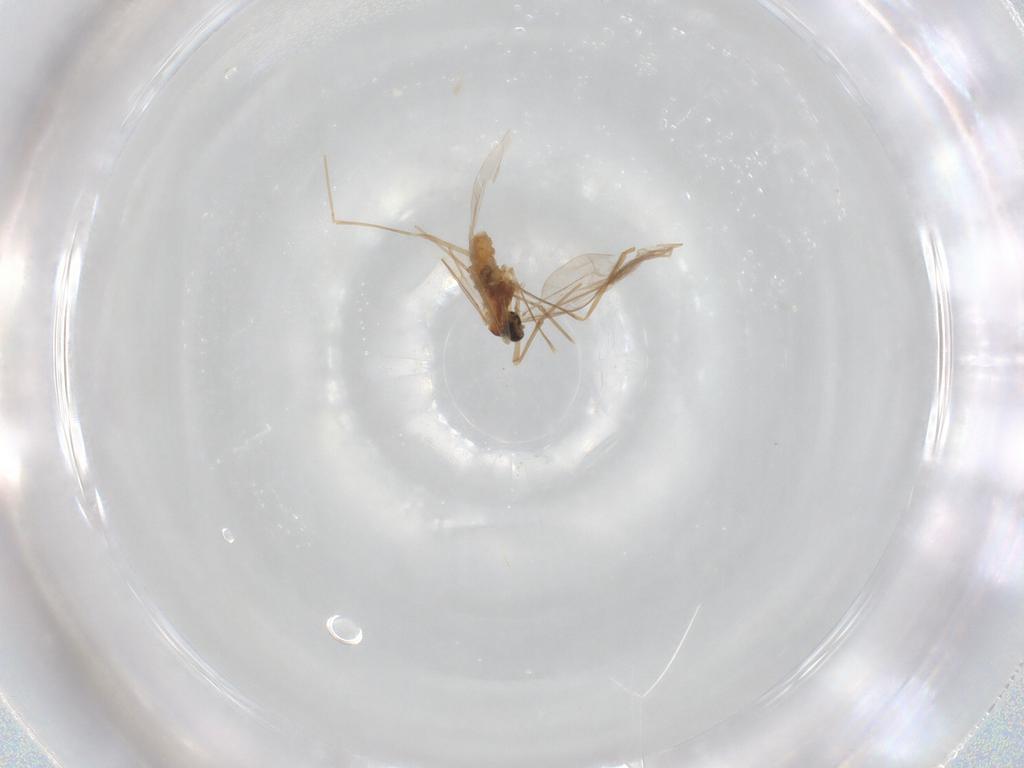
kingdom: Animalia
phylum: Arthropoda
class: Insecta
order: Diptera
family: Cecidomyiidae
